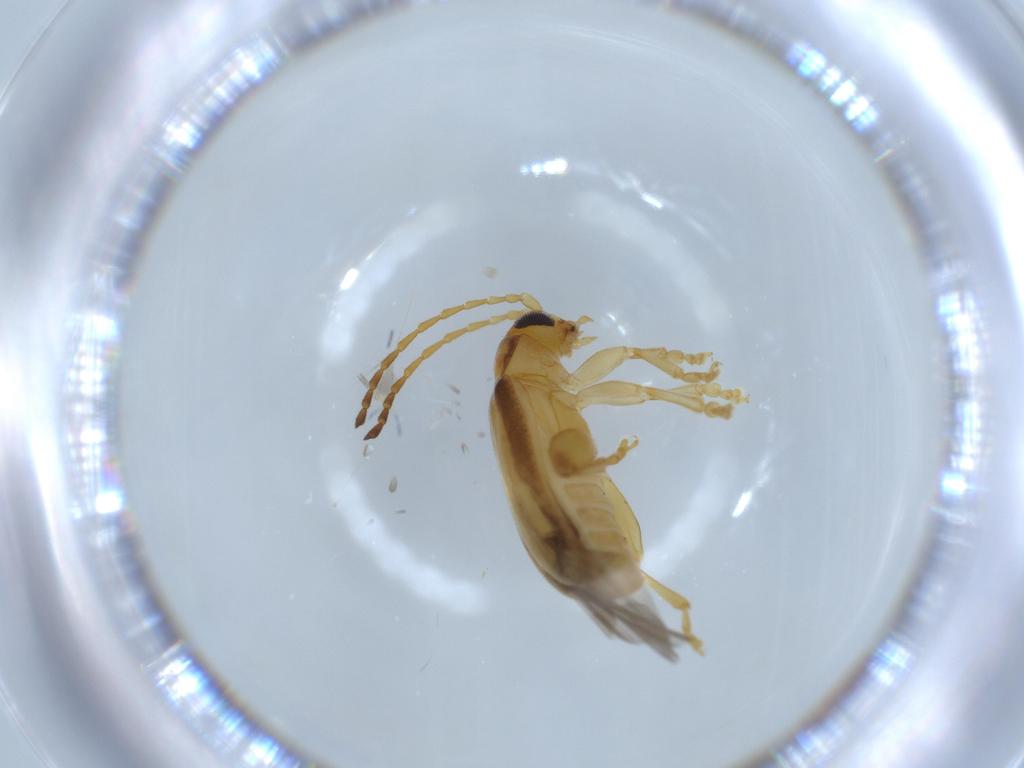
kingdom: Animalia
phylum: Arthropoda
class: Insecta
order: Coleoptera
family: Chrysomelidae
